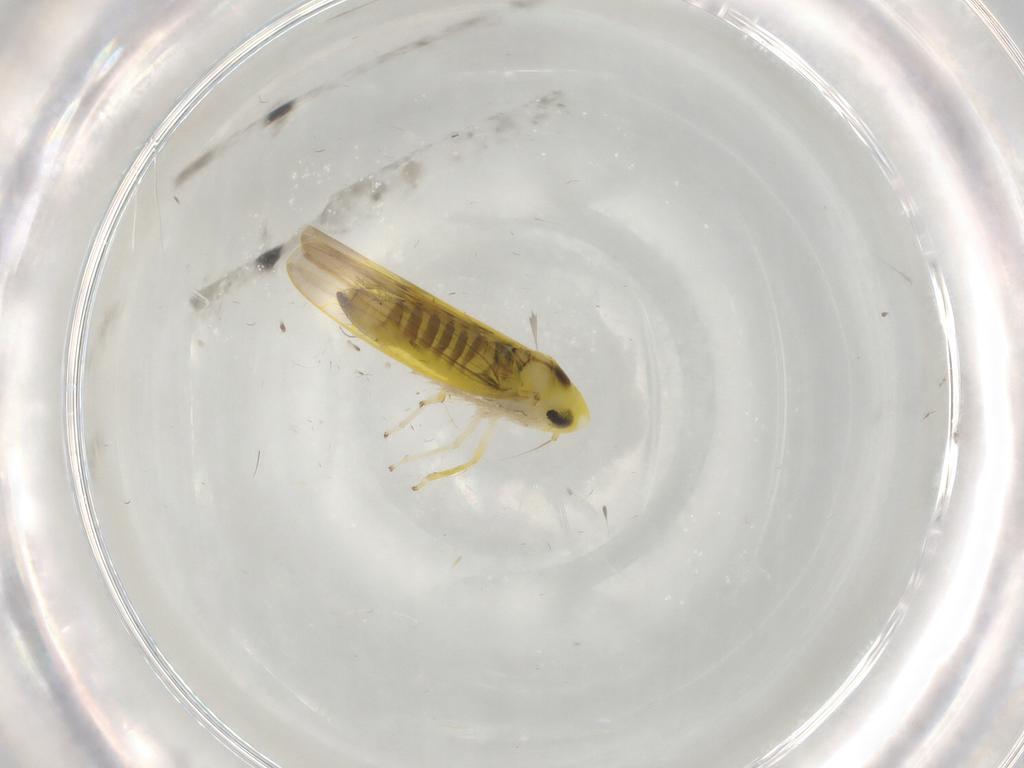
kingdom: Animalia
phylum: Arthropoda
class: Insecta
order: Hemiptera
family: Cicadellidae
